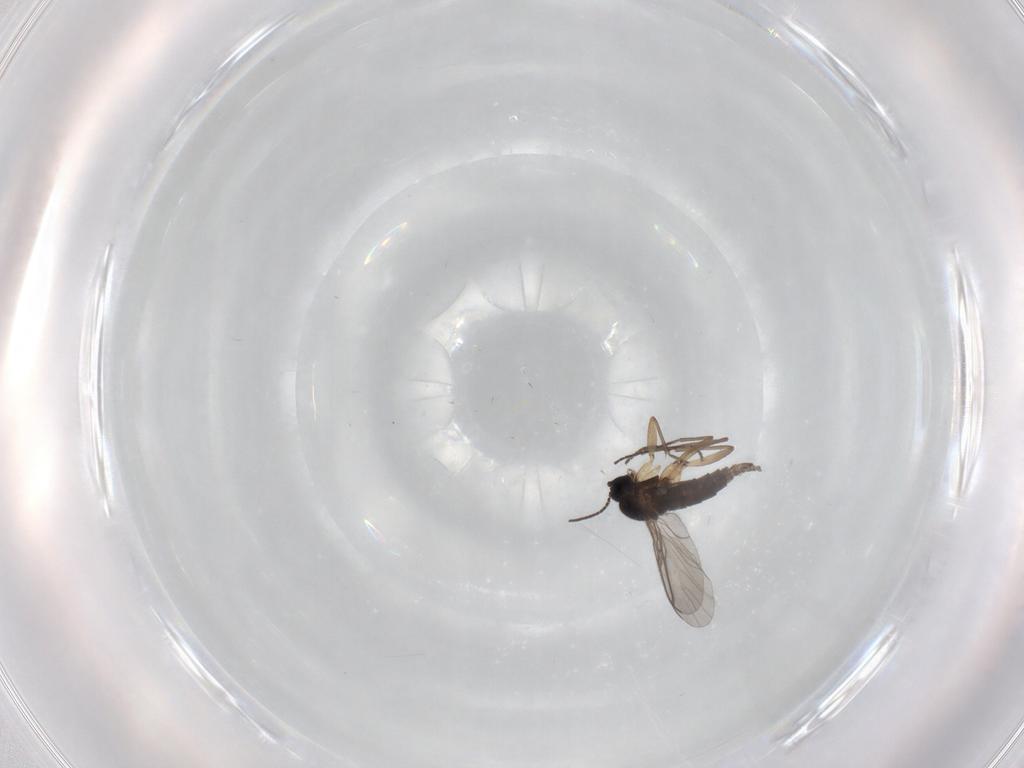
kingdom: Animalia
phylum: Arthropoda
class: Insecta
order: Diptera
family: Sciaridae
